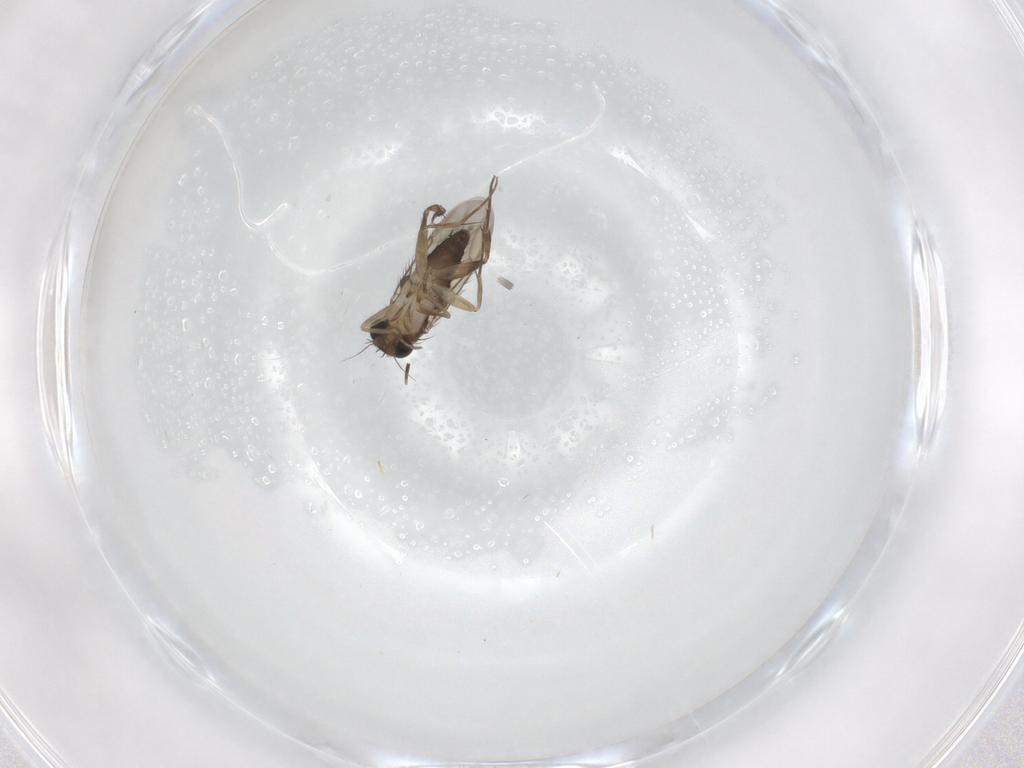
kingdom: Animalia
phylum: Arthropoda
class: Insecta
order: Diptera
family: Phoridae
